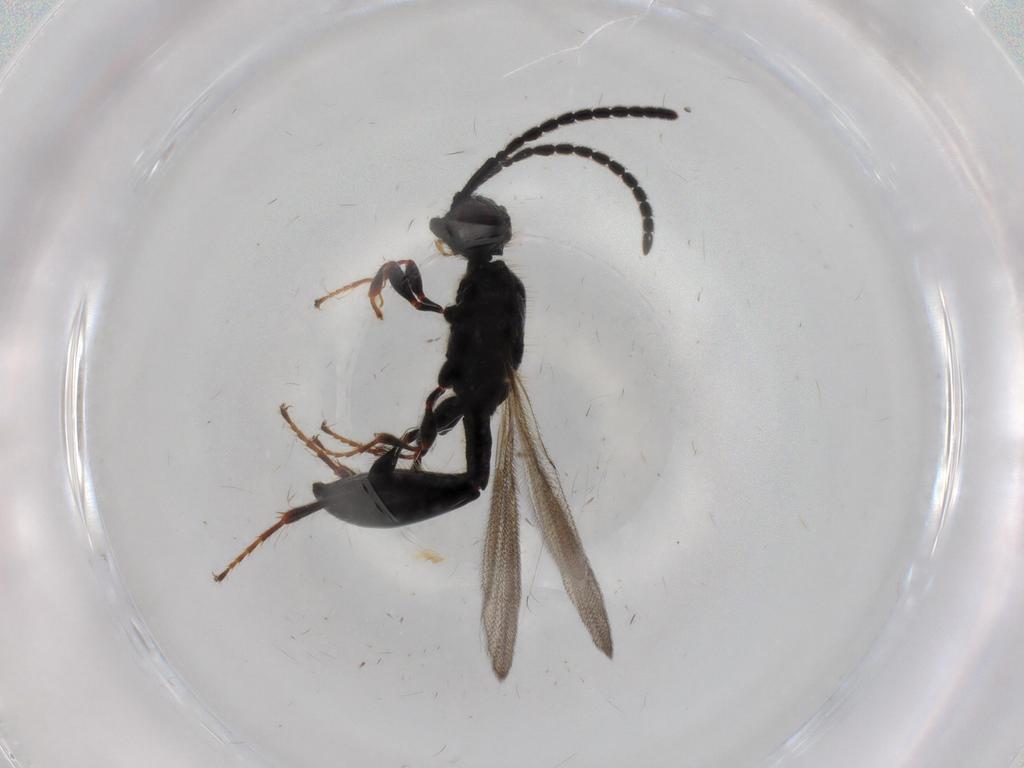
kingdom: Animalia
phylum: Arthropoda
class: Insecta
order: Hymenoptera
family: Diapriidae
